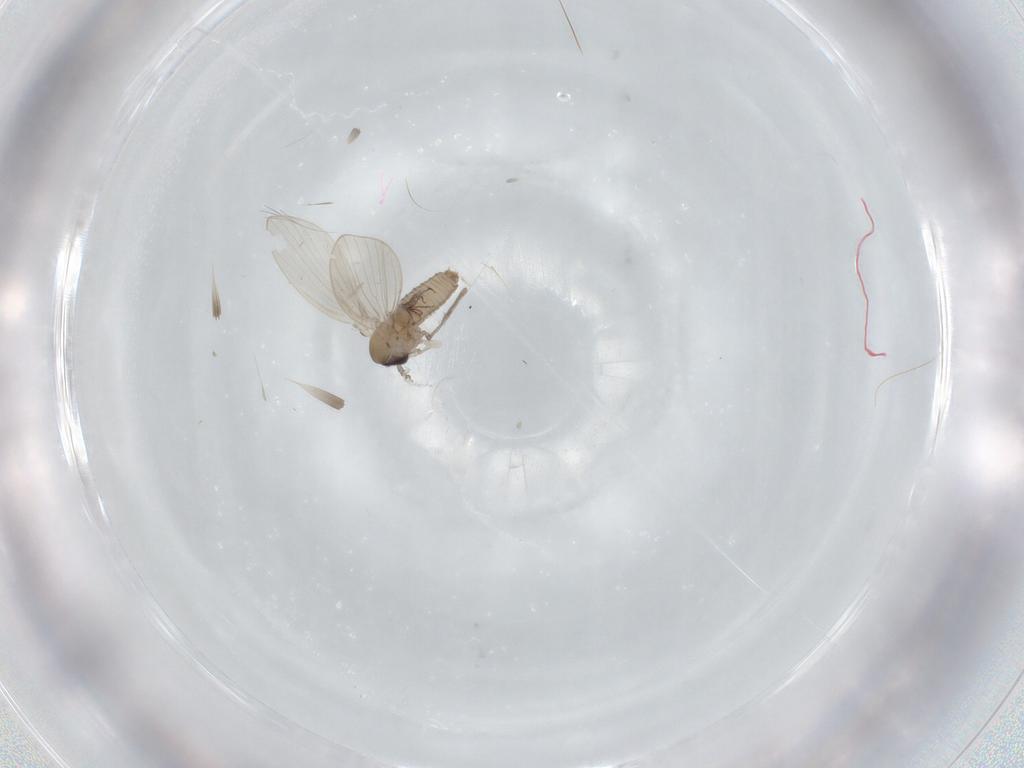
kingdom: Animalia
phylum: Arthropoda
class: Insecta
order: Diptera
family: Psychodidae
